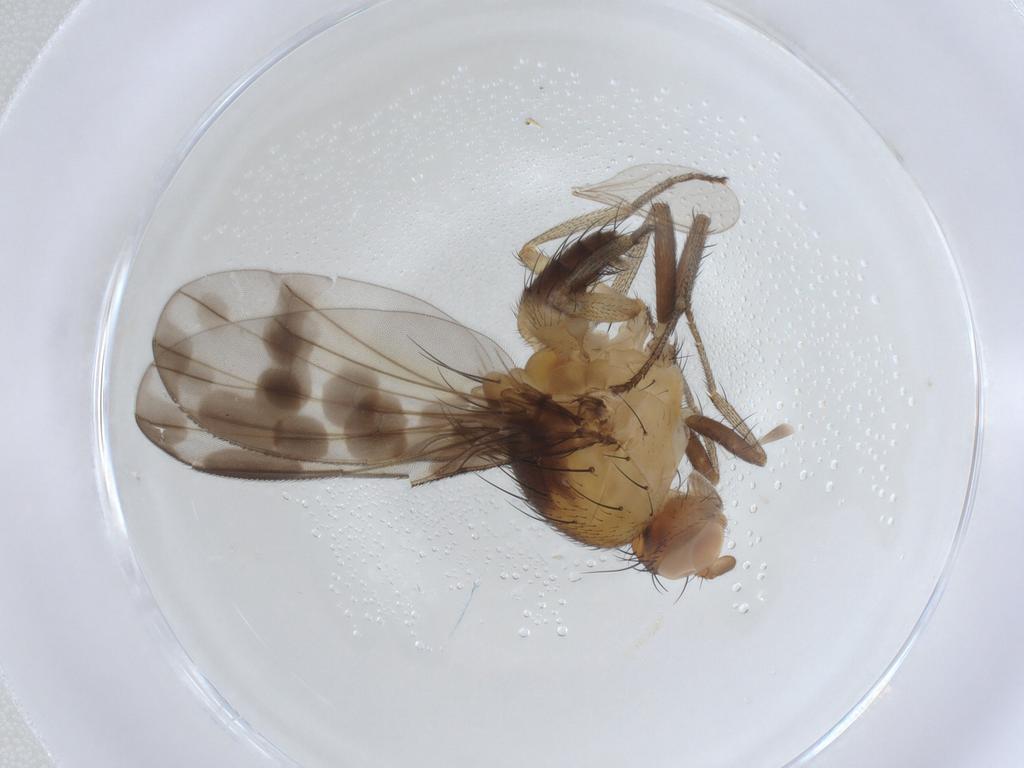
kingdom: Animalia
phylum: Arthropoda
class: Insecta
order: Diptera
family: Lauxaniidae
